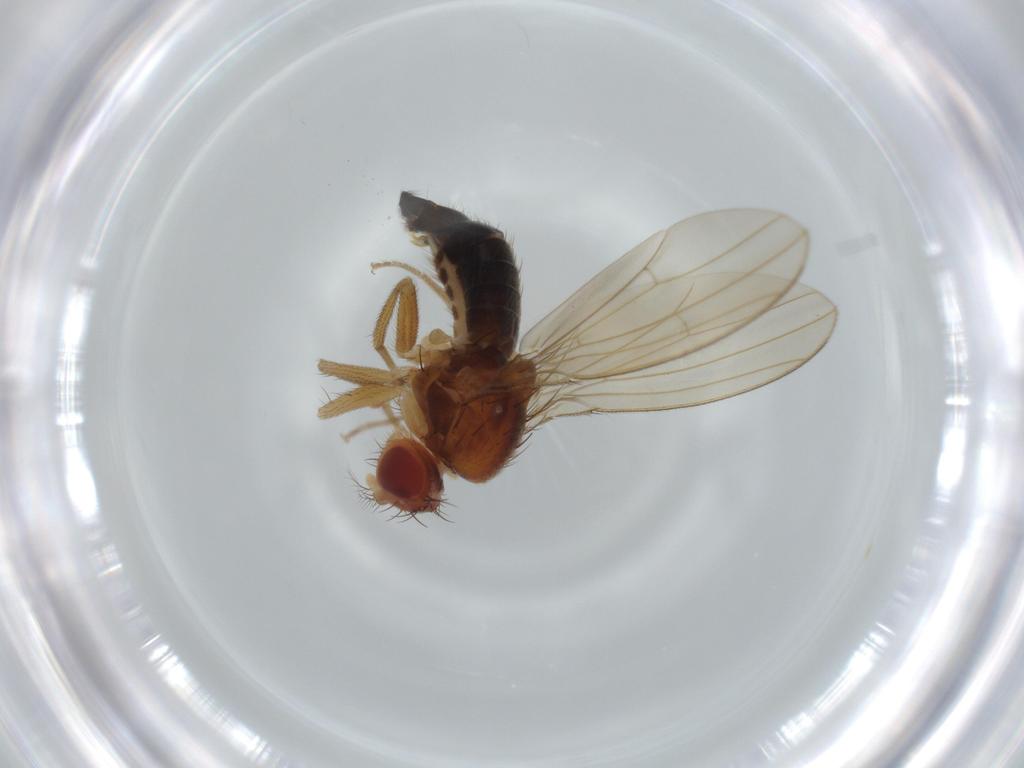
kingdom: Animalia
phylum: Arthropoda
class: Insecta
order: Diptera
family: Drosophilidae
